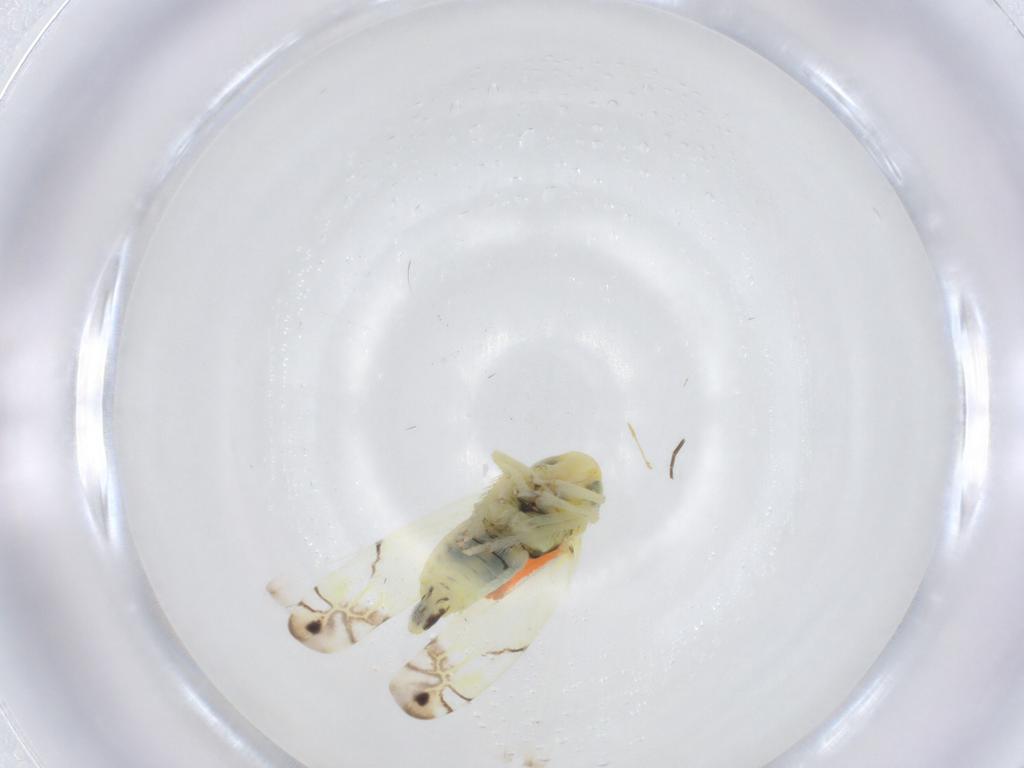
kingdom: Animalia
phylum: Arthropoda
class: Insecta
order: Hemiptera
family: Cicadellidae
